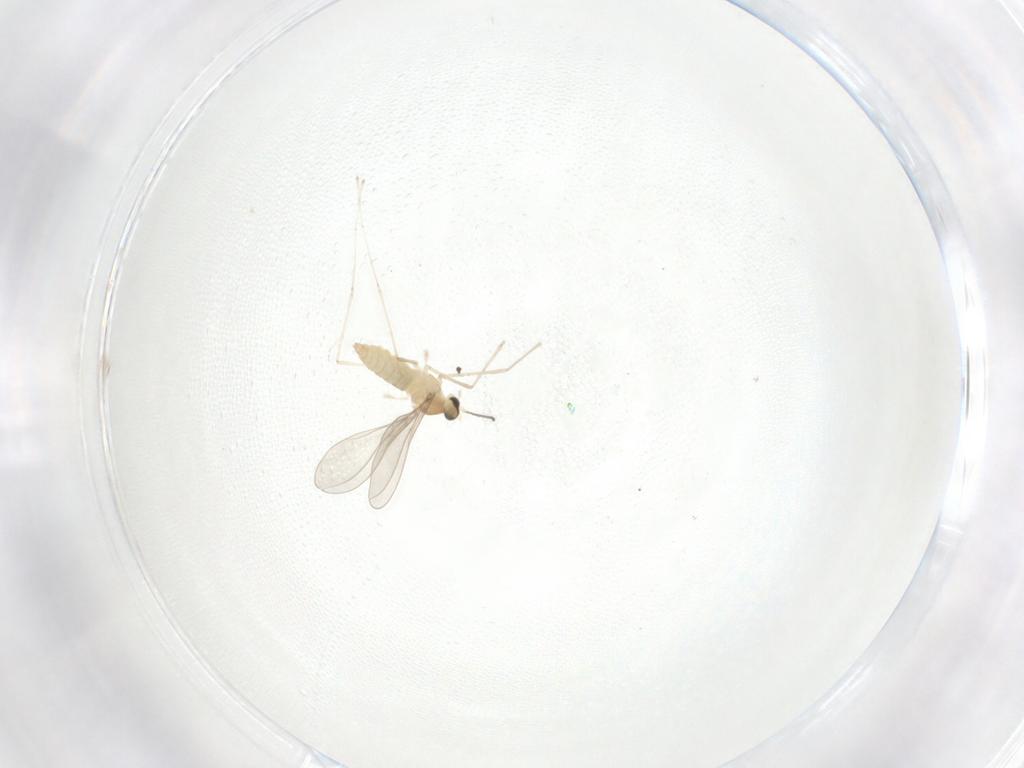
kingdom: Animalia
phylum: Arthropoda
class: Insecta
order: Diptera
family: Dolichopodidae
